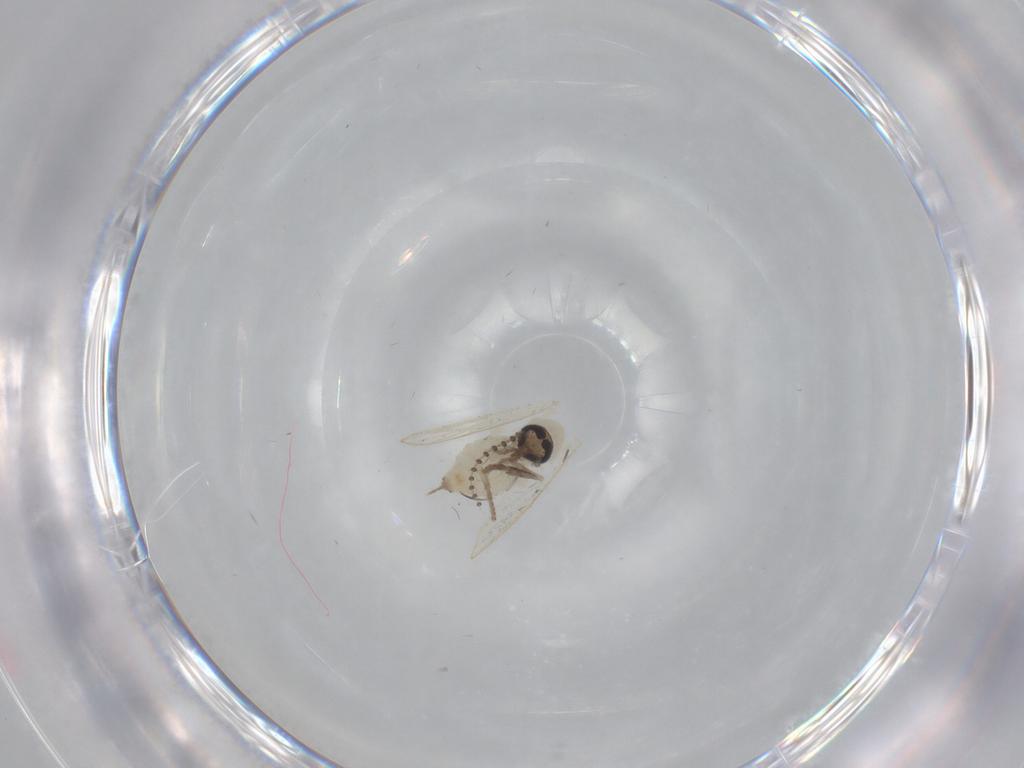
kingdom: Animalia
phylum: Arthropoda
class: Insecta
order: Diptera
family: Psychodidae
